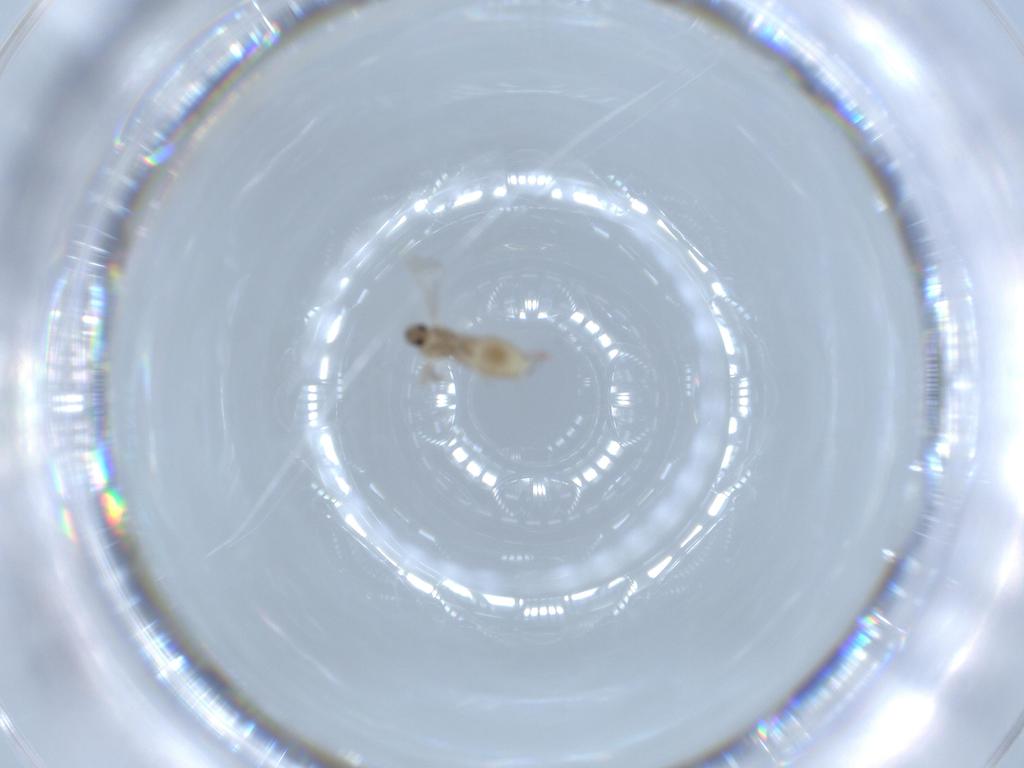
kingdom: Animalia
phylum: Arthropoda
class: Insecta
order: Diptera
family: Cecidomyiidae
